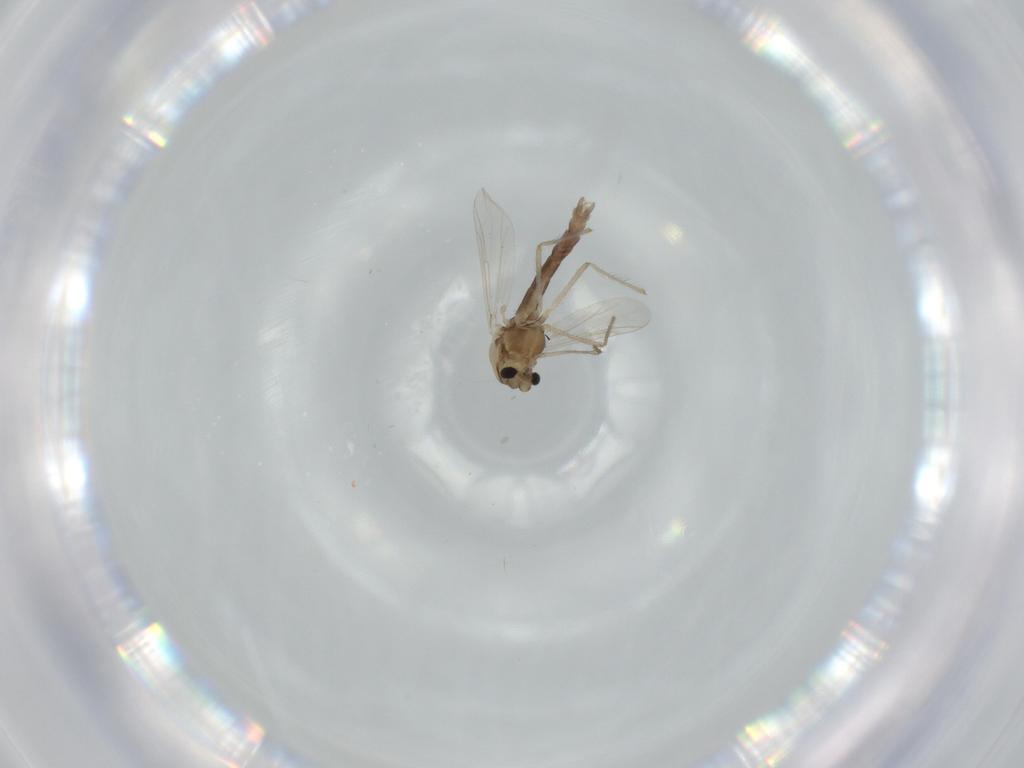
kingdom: Animalia
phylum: Arthropoda
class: Insecta
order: Diptera
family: Chironomidae
